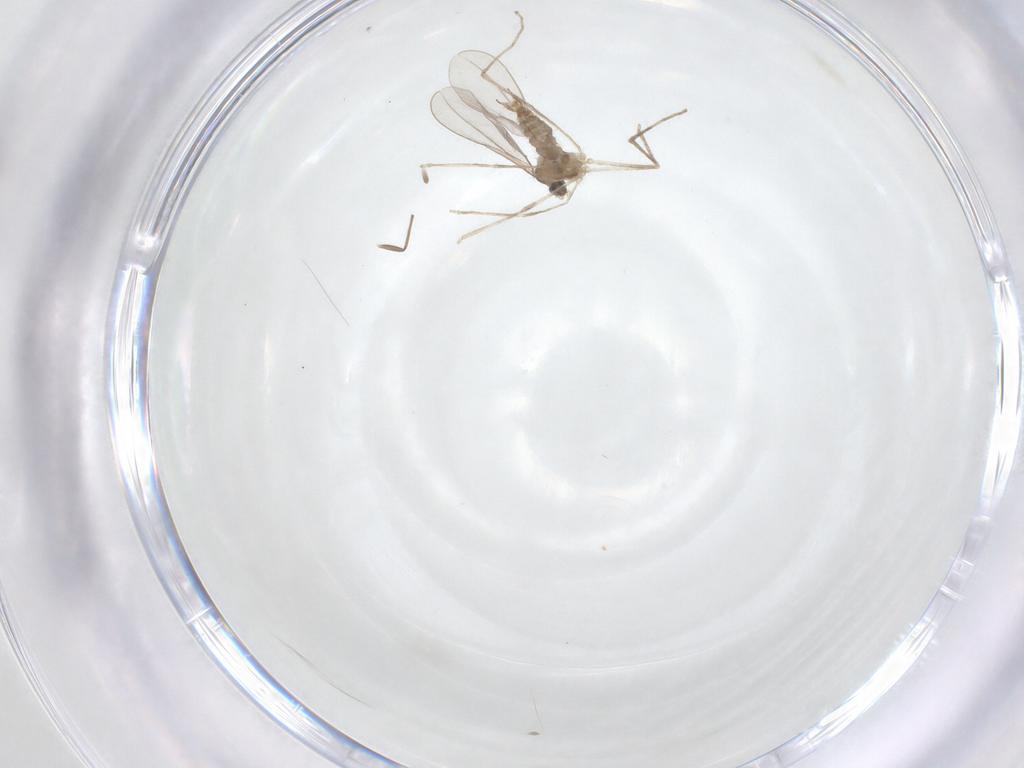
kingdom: Animalia
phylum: Arthropoda
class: Insecta
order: Diptera
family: Cecidomyiidae
